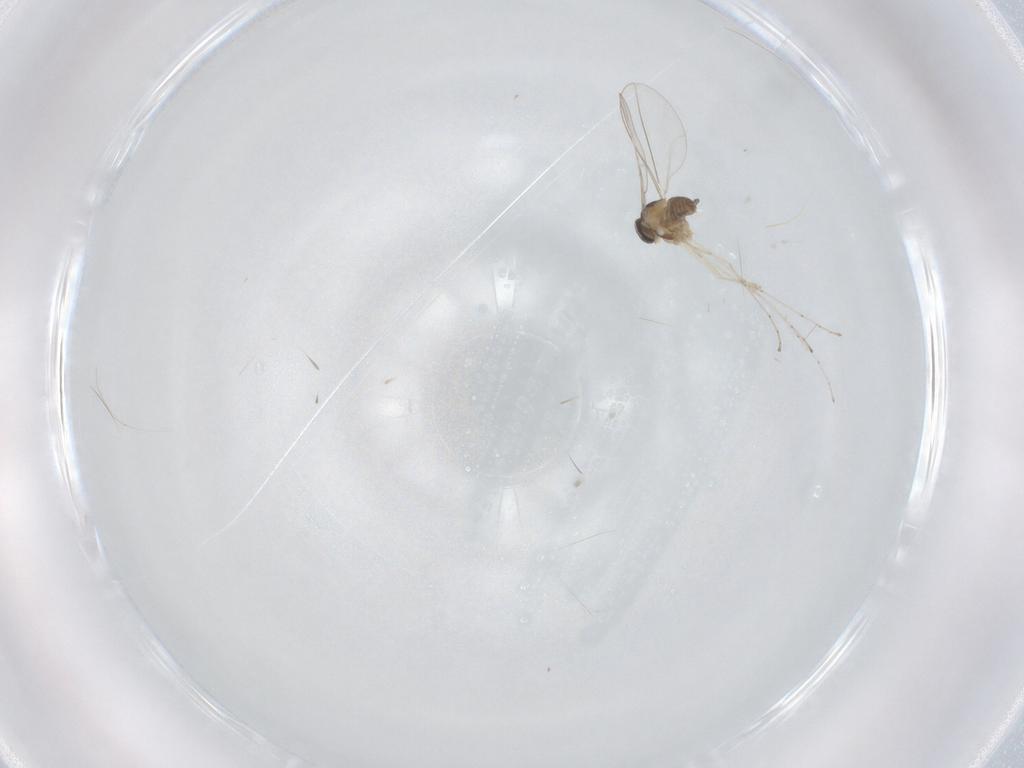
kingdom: Animalia
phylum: Arthropoda
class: Insecta
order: Diptera
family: Cecidomyiidae
